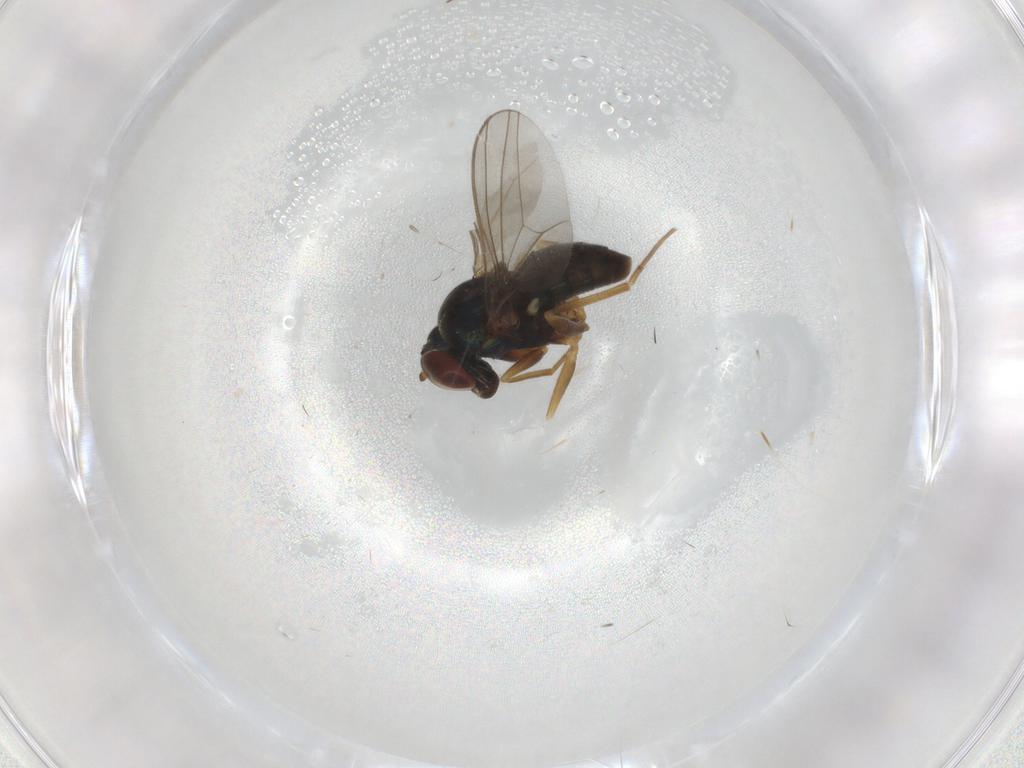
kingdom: Animalia
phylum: Arthropoda
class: Insecta
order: Diptera
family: Dolichopodidae
